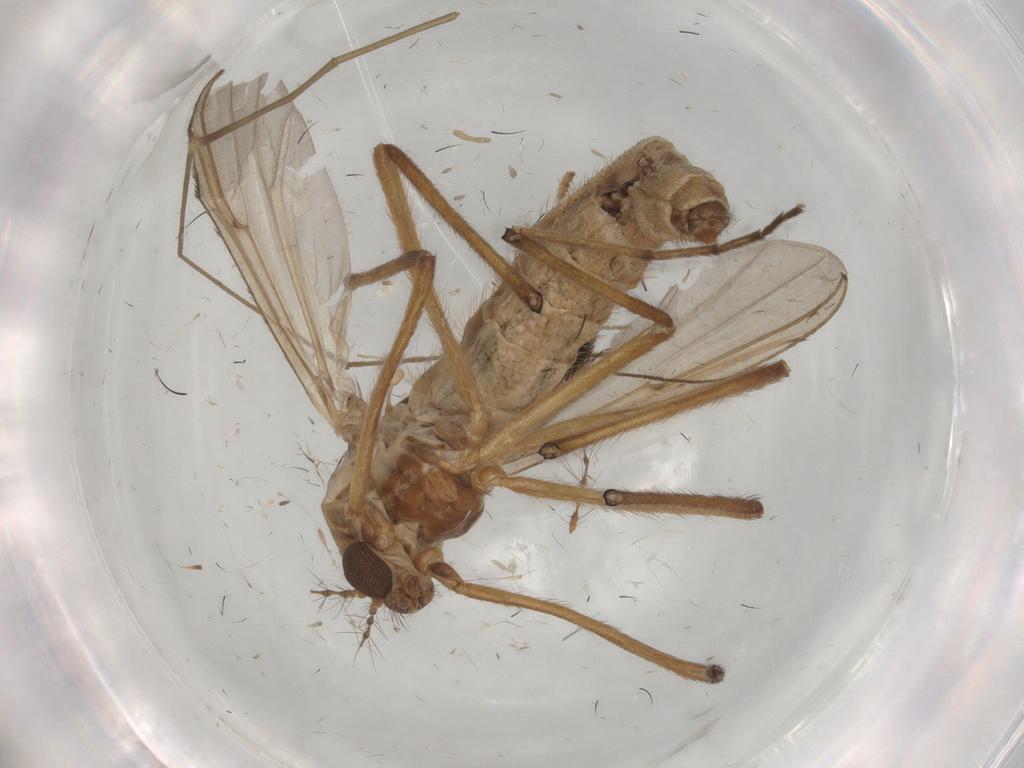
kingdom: Animalia
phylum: Arthropoda
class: Insecta
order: Diptera
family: Limoniidae
